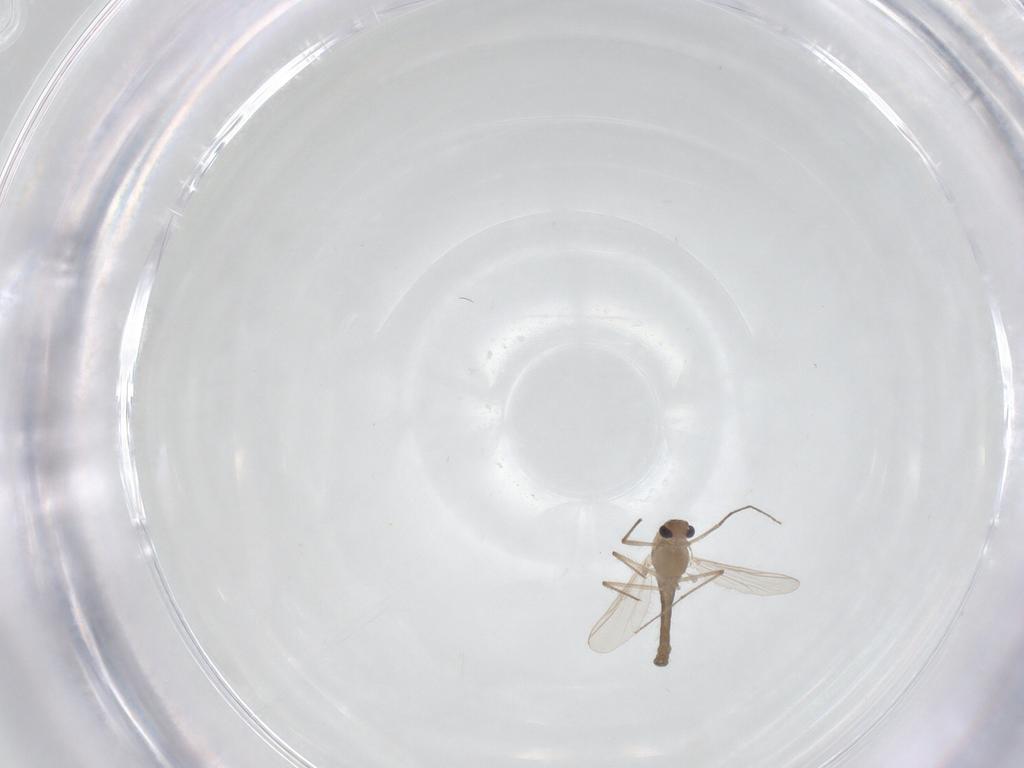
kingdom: Animalia
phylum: Arthropoda
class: Insecta
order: Diptera
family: Chironomidae
